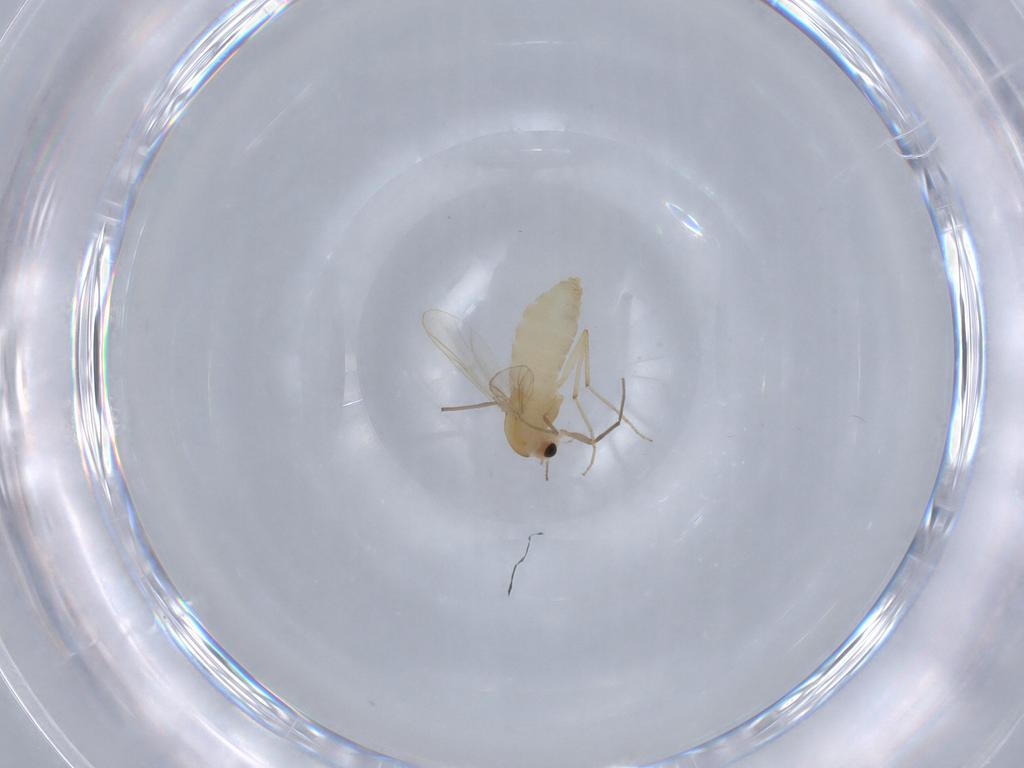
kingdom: Animalia
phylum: Arthropoda
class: Insecta
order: Diptera
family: Chironomidae
